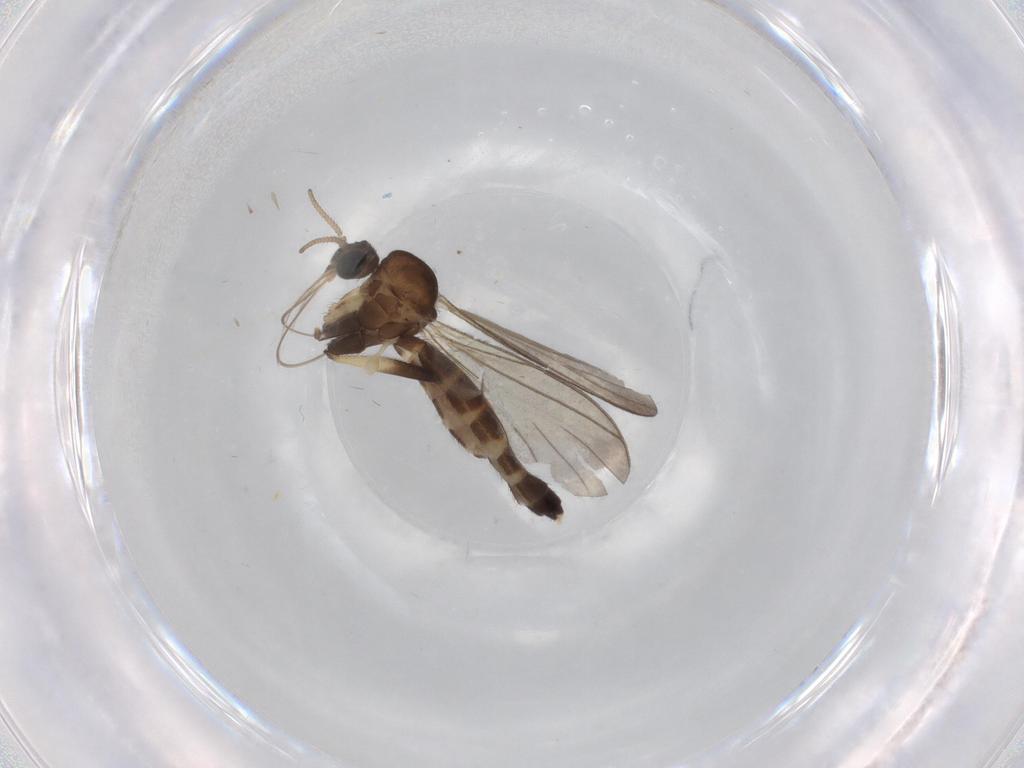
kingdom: Animalia
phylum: Arthropoda
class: Insecta
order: Diptera
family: Keroplatidae
